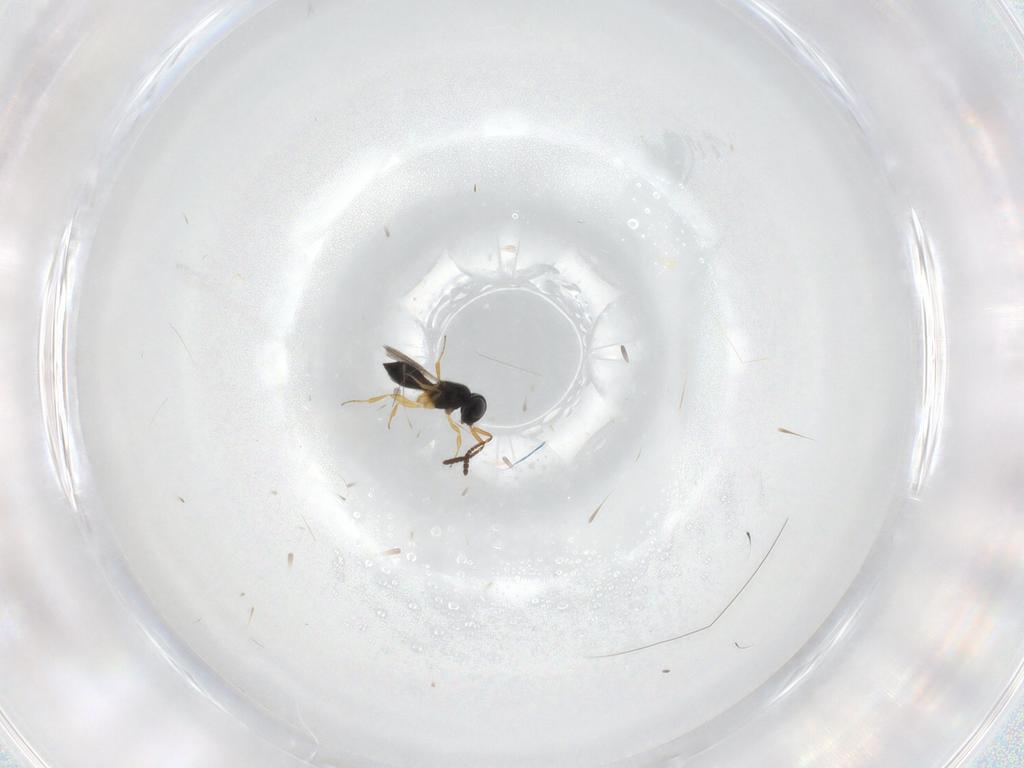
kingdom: Animalia
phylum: Arthropoda
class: Insecta
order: Hymenoptera
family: Scelionidae
